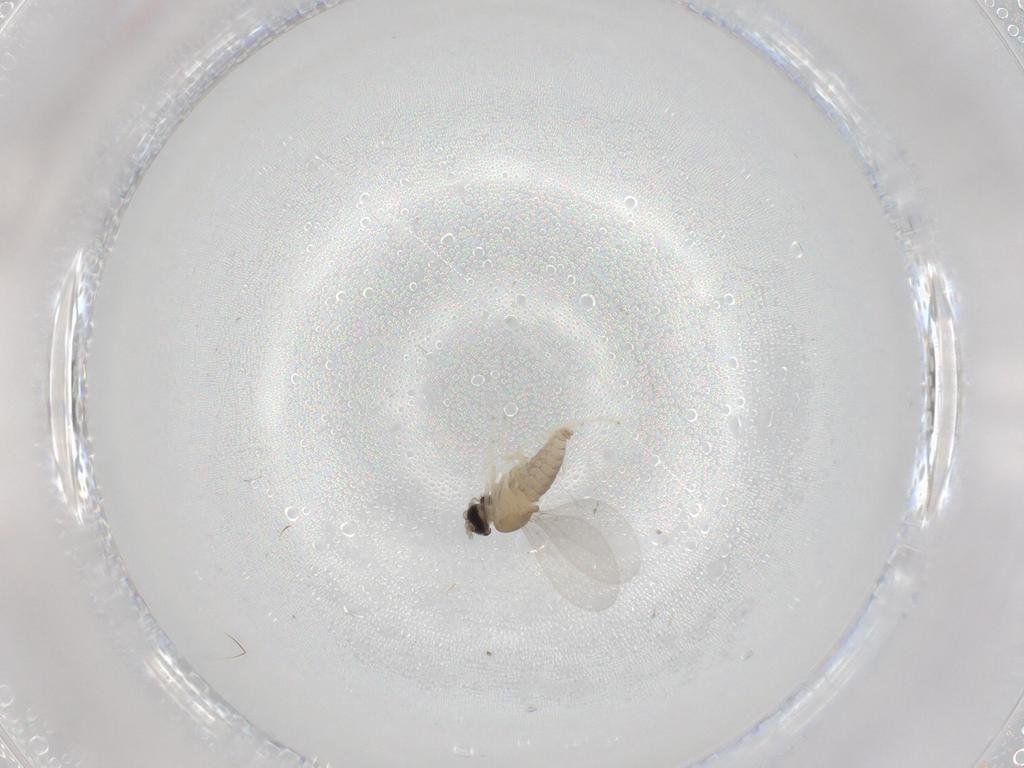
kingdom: Animalia
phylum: Arthropoda
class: Insecta
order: Diptera
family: Cecidomyiidae
